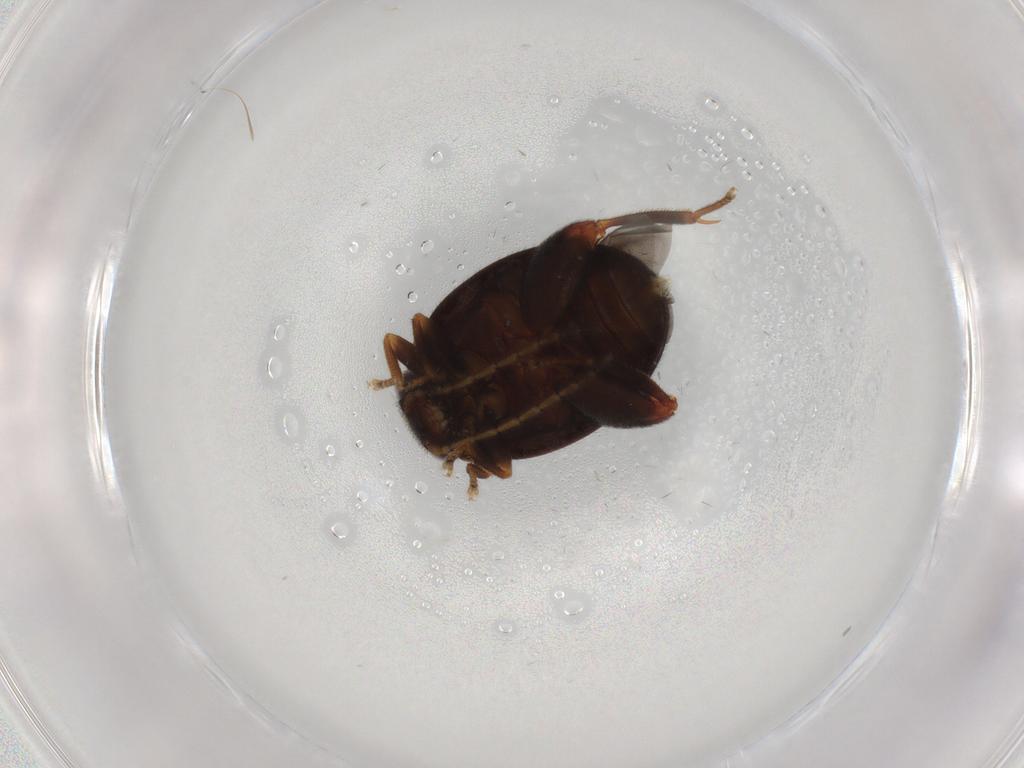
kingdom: Animalia
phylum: Arthropoda
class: Insecta
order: Coleoptera
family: Scirtidae
